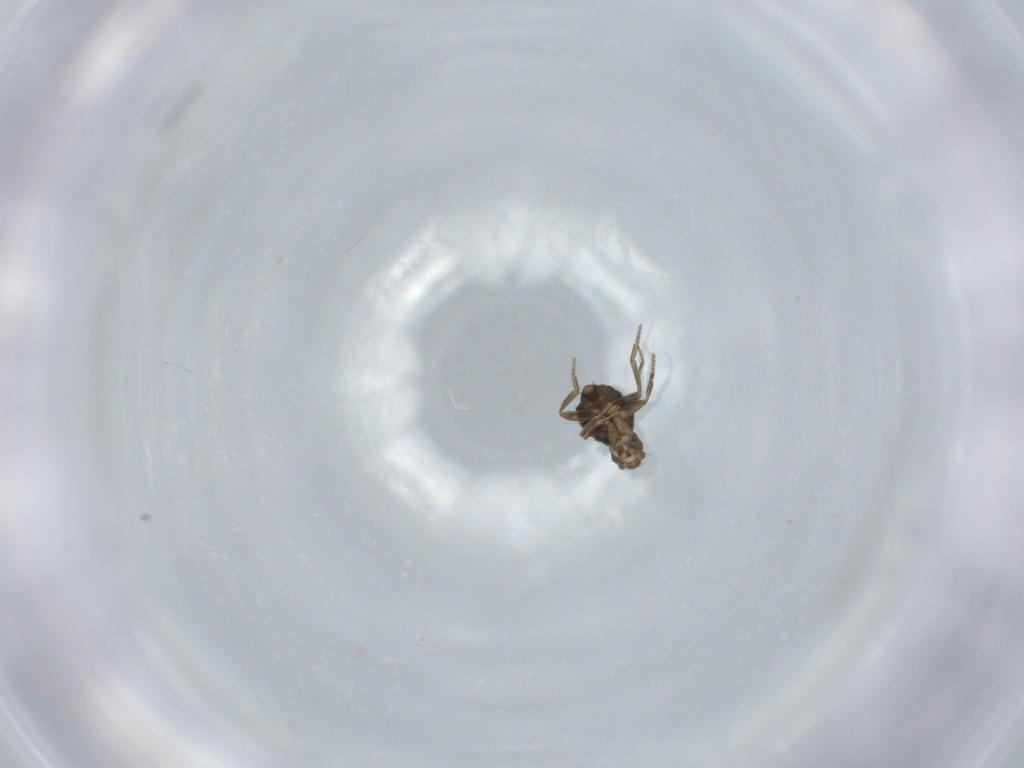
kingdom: Animalia
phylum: Arthropoda
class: Insecta
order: Diptera
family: Phoridae
